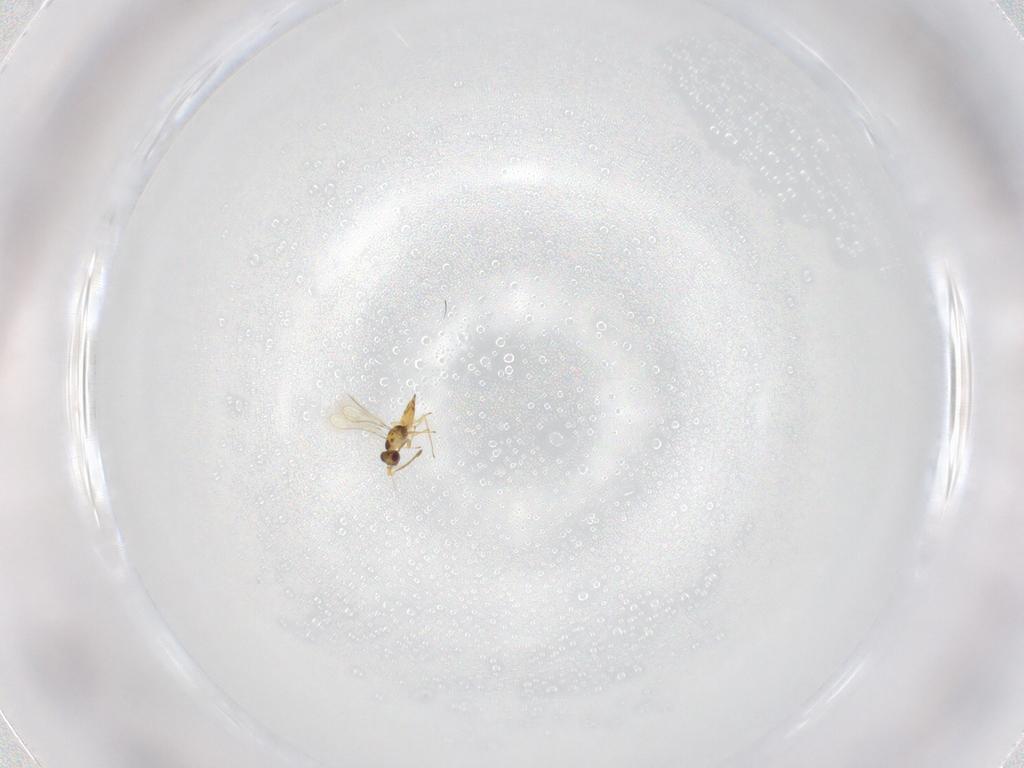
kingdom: Animalia
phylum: Arthropoda
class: Insecta
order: Hymenoptera
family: Mymaridae
